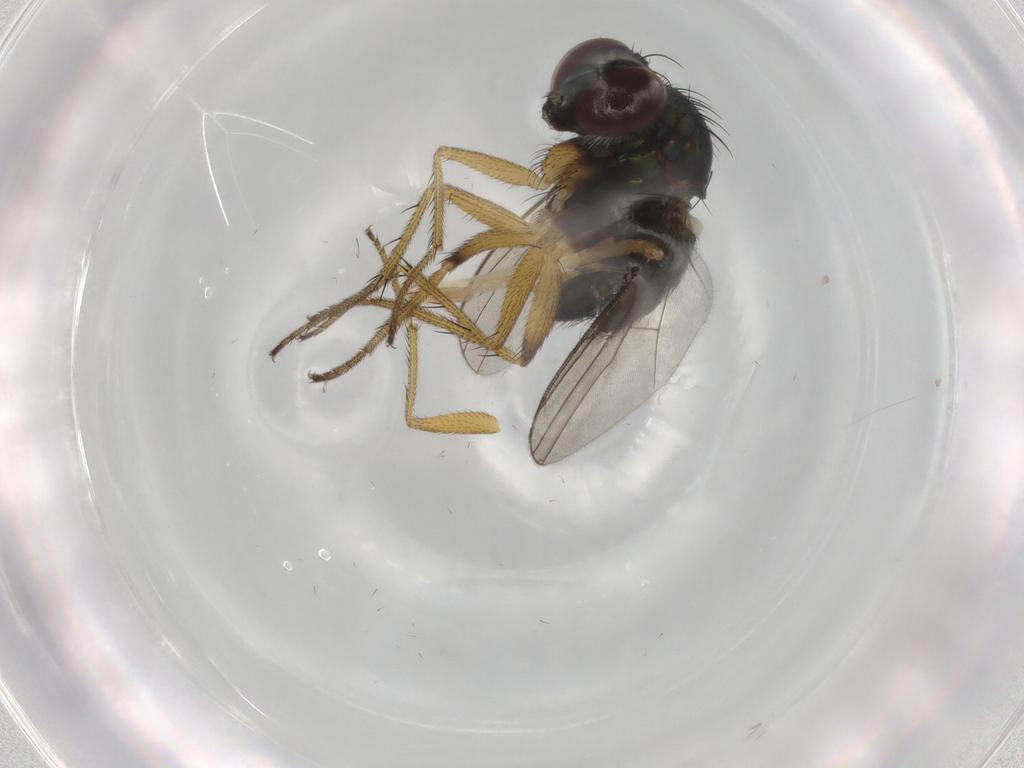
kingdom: Animalia
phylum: Arthropoda
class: Insecta
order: Diptera
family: Dolichopodidae
